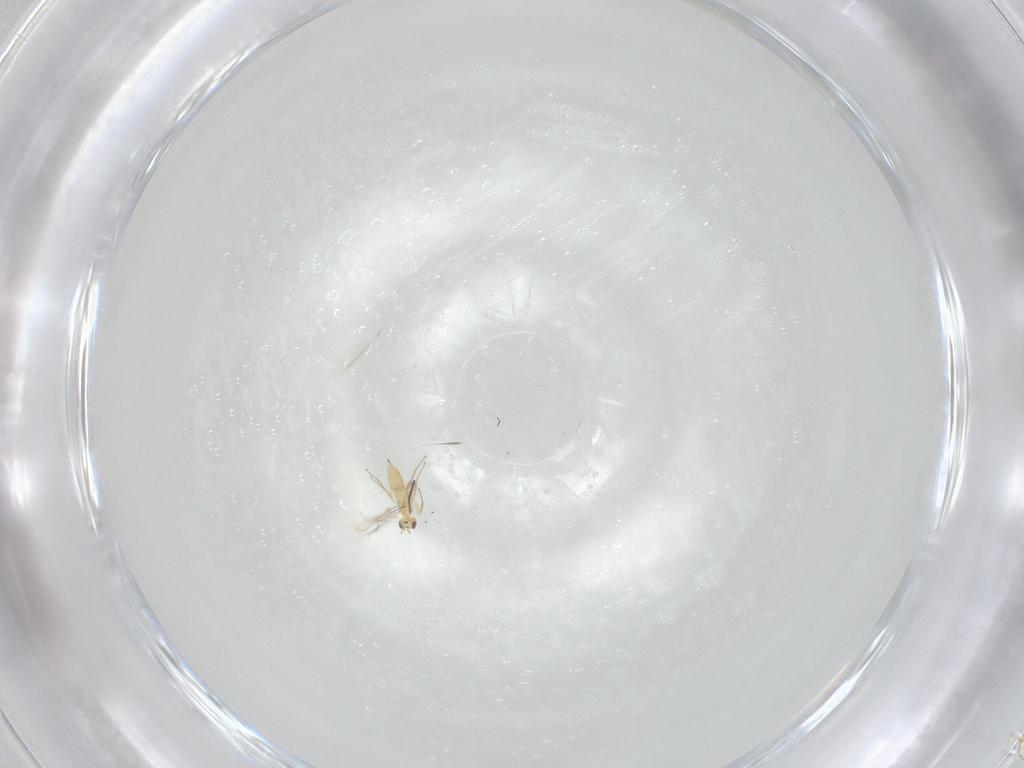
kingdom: Animalia
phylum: Arthropoda
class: Insecta
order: Hymenoptera
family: Mymaridae
